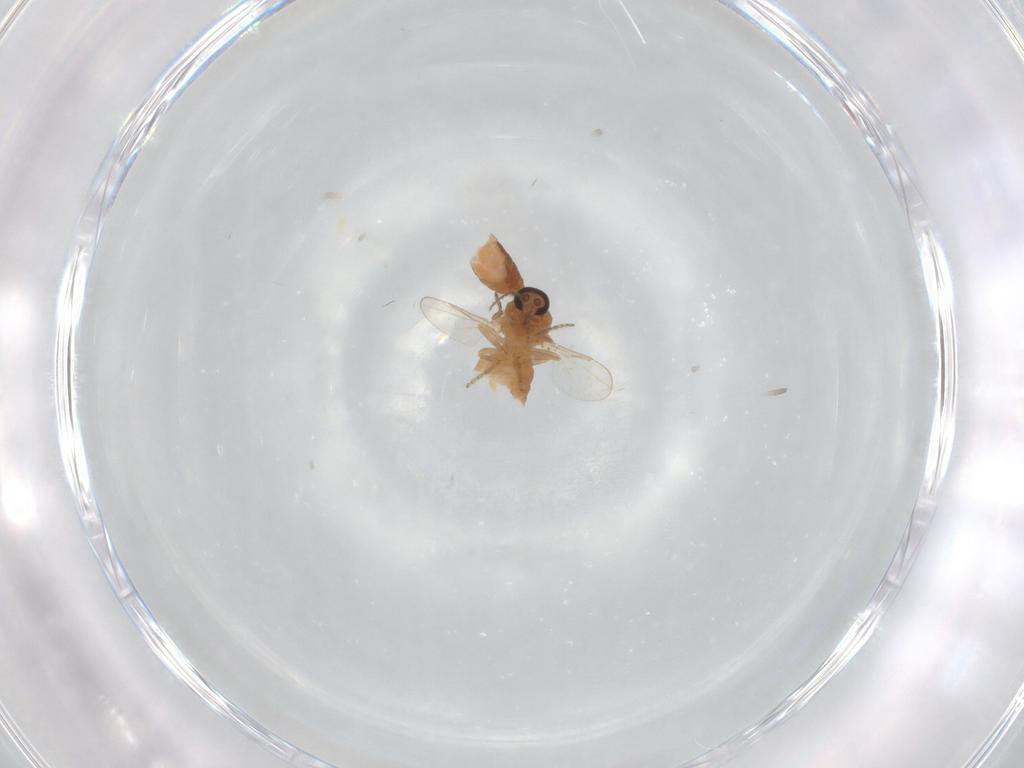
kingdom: Animalia
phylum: Arthropoda
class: Insecta
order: Diptera
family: Ceratopogonidae
